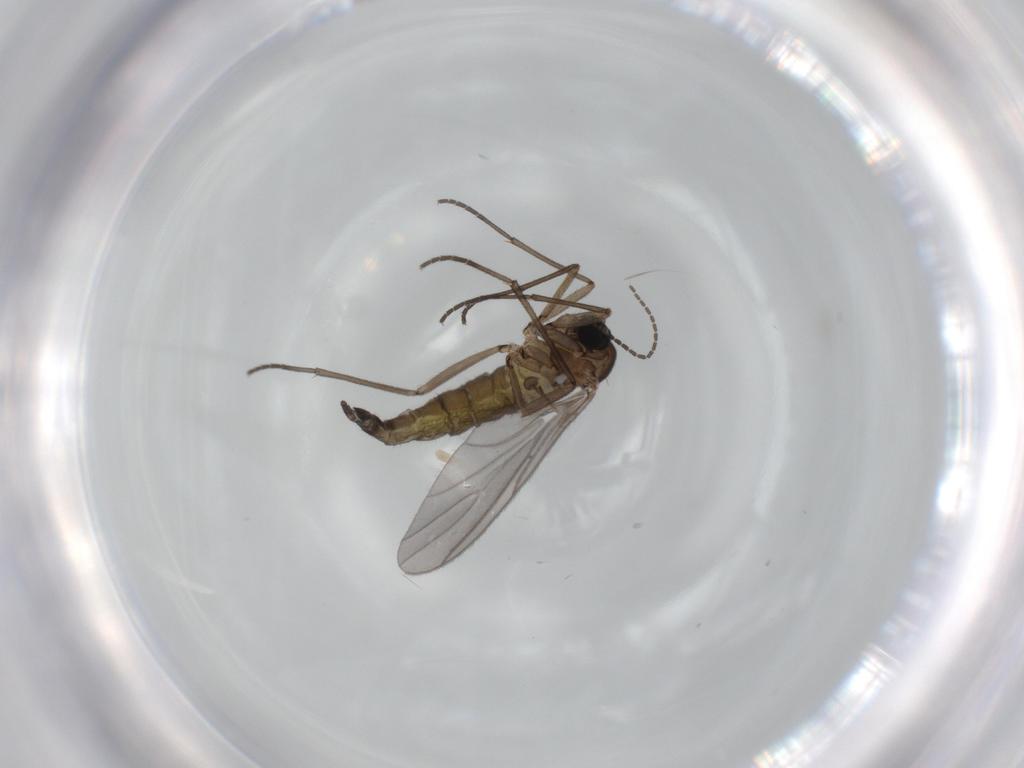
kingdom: Animalia
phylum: Arthropoda
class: Insecta
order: Diptera
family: Sciaridae
